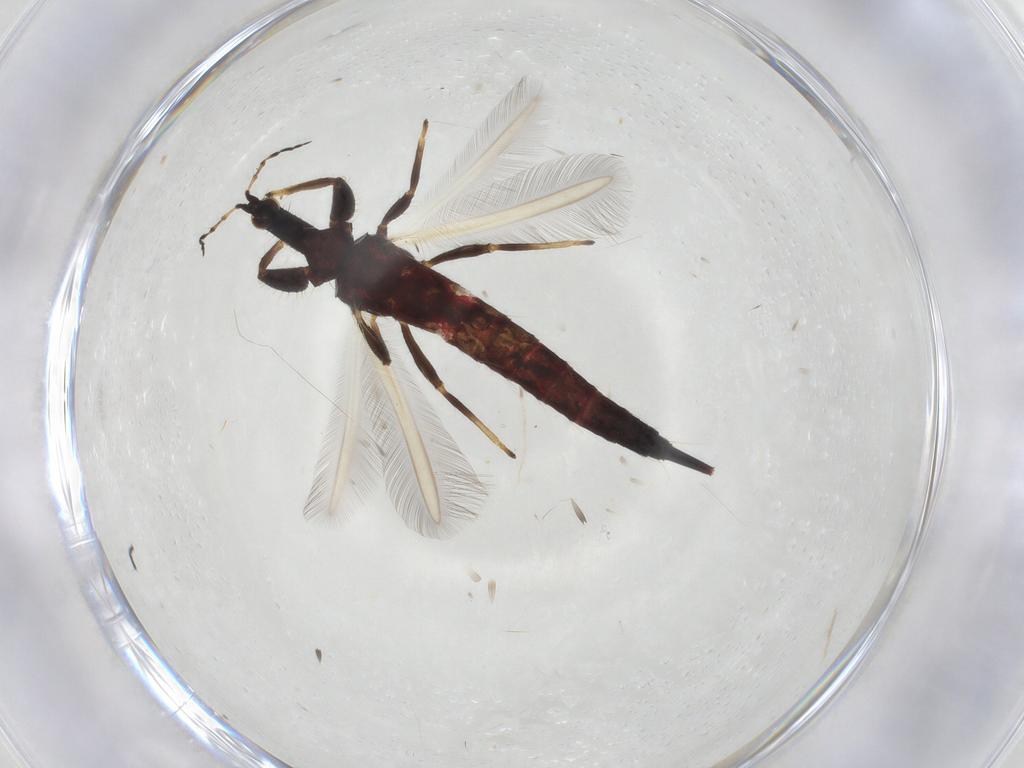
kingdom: Animalia
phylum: Arthropoda
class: Insecta
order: Thysanoptera
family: Phlaeothripidae
